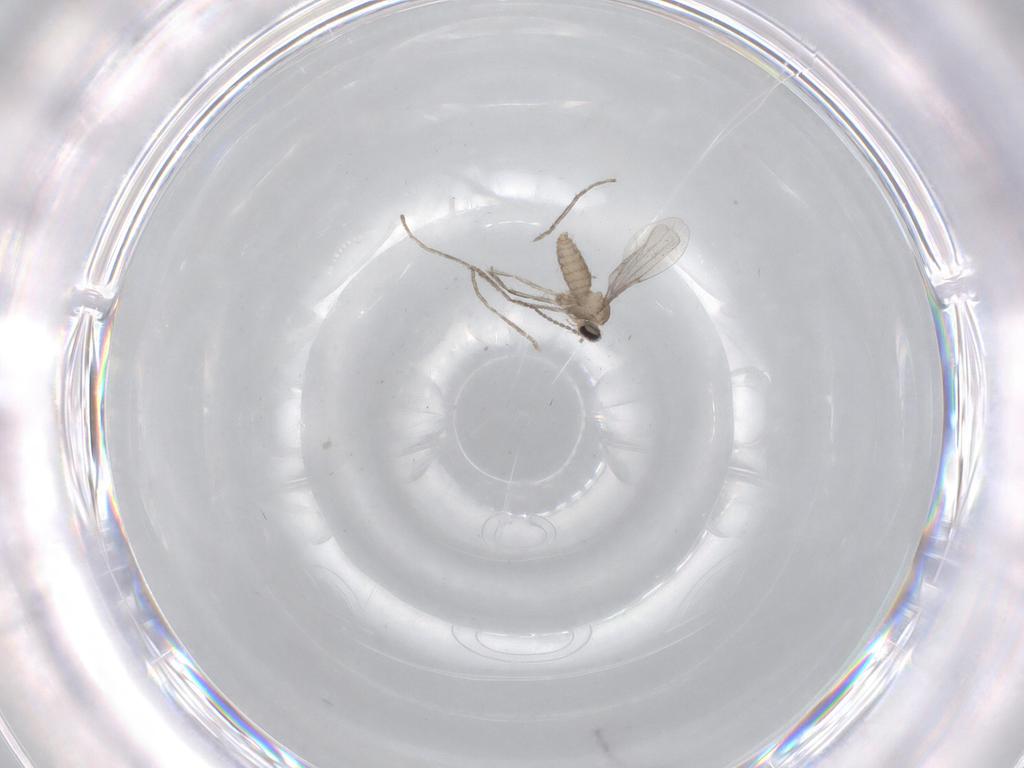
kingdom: Animalia
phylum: Arthropoda
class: Insecta
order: Diptera
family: Cecidomyiidae
